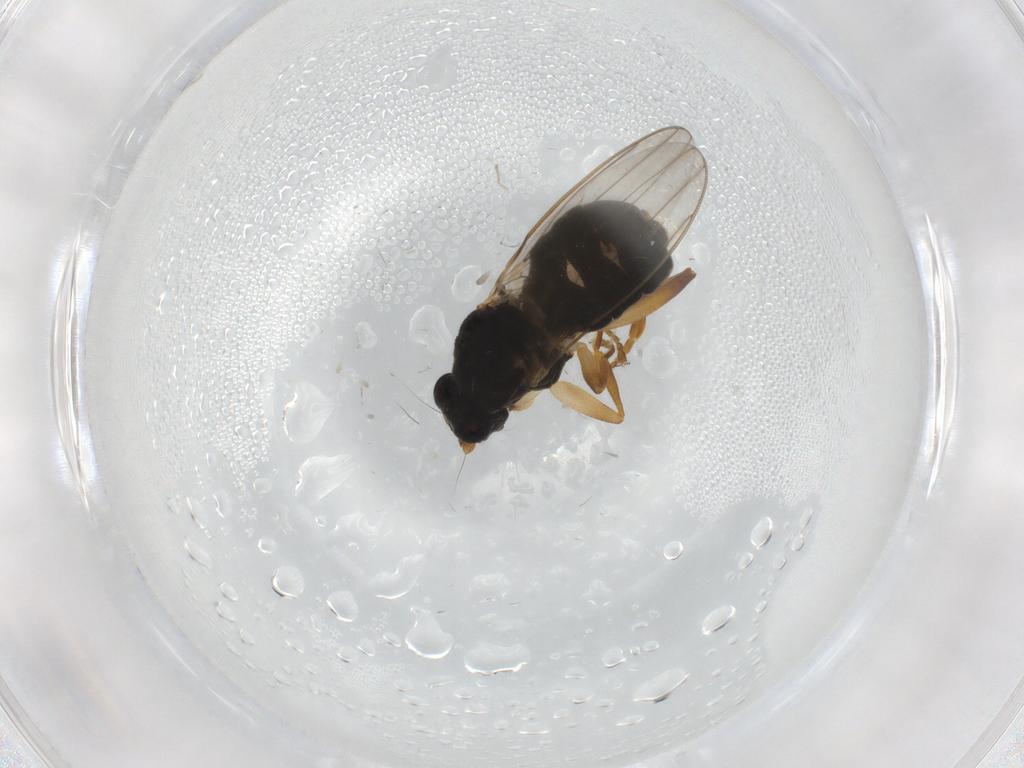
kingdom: Animalia
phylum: Arthropoda
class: Insecta
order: Diptera
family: Sphaeroceridae
